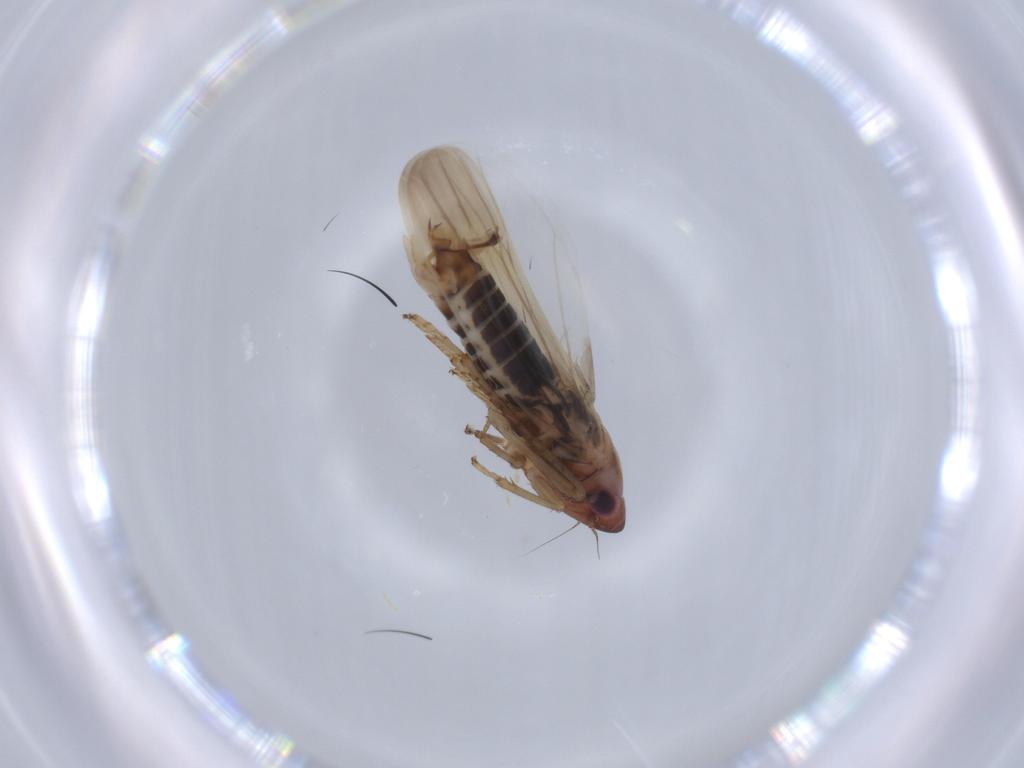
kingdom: Animalia
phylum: Arthropoda
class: Insecta
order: Hemiptera
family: Cicadellidae
